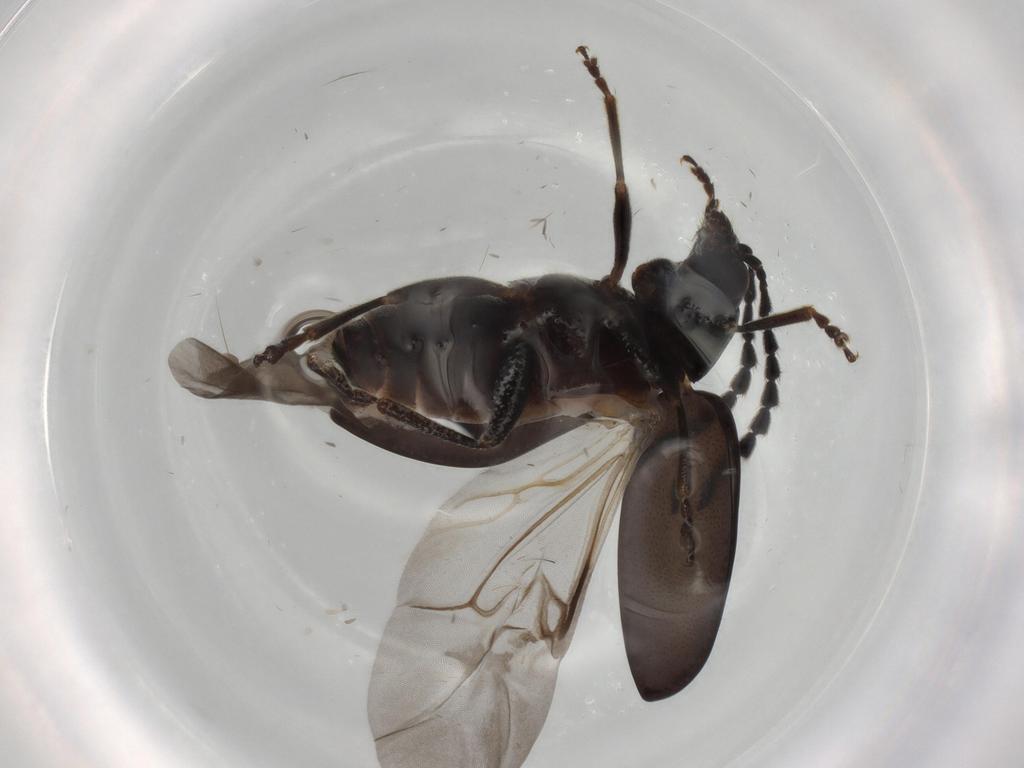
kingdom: Animalia
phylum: Arthropoda
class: Insecta
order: Coleoptera
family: Chrysomelidae
